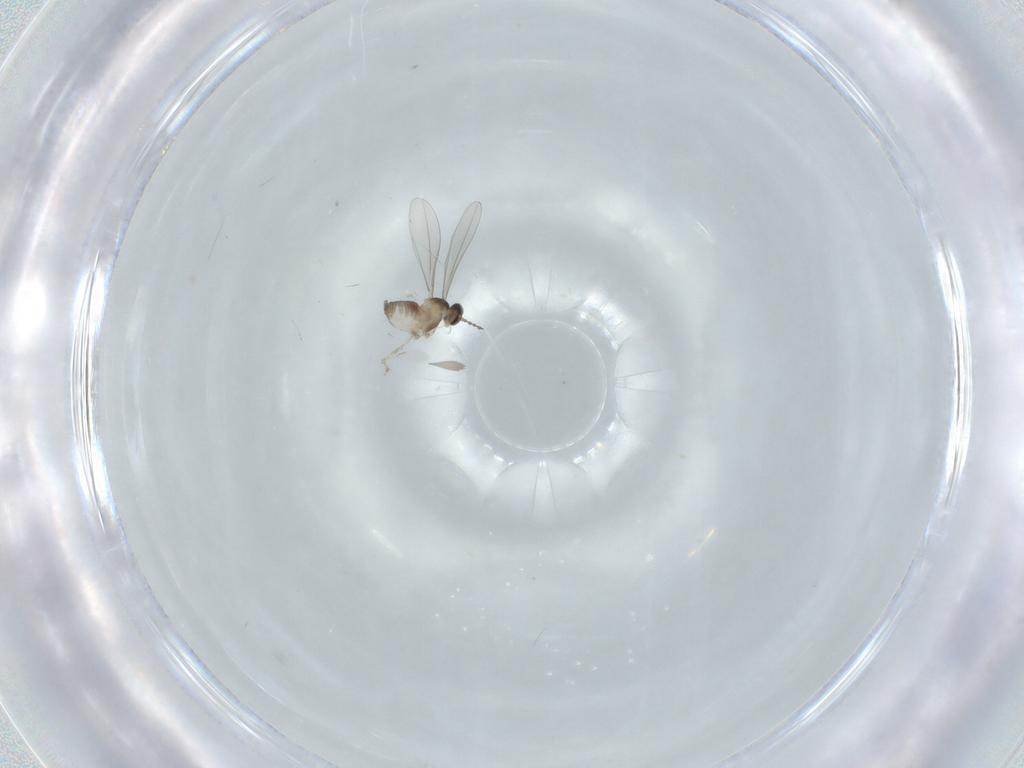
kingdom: Animalia
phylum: Arthropoda
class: Insecta
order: Diptera
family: Cecidomyiidae
